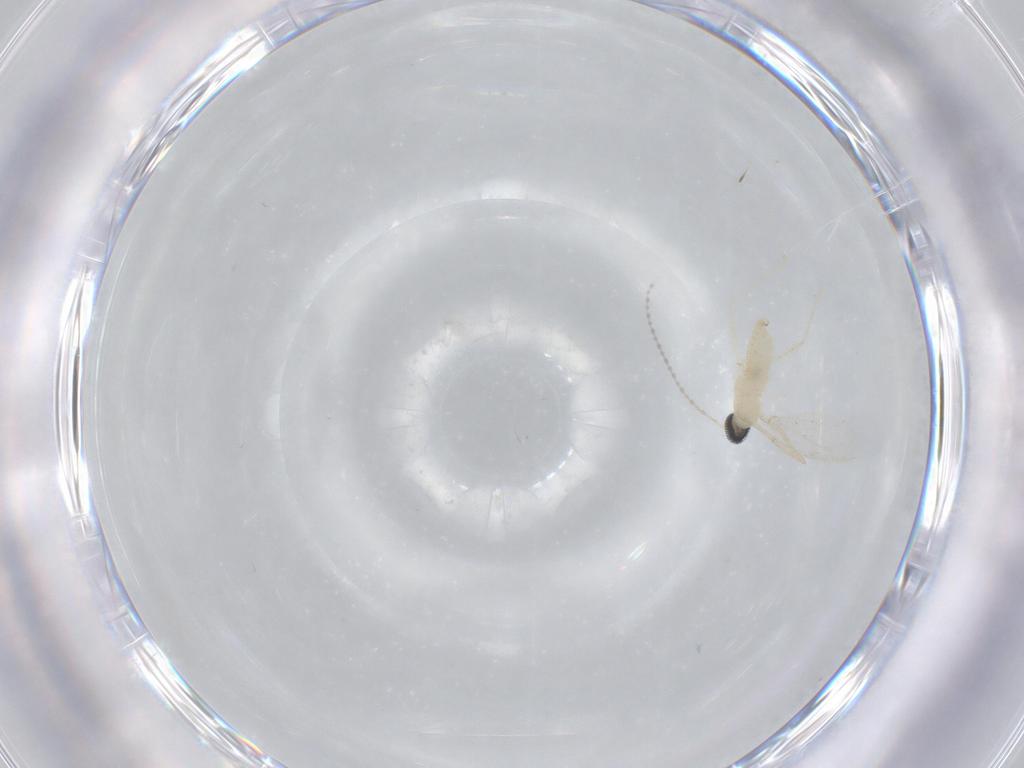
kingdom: Animalia
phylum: Arthropoda
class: Insecta
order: Diptera
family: Cecidomyiidae
